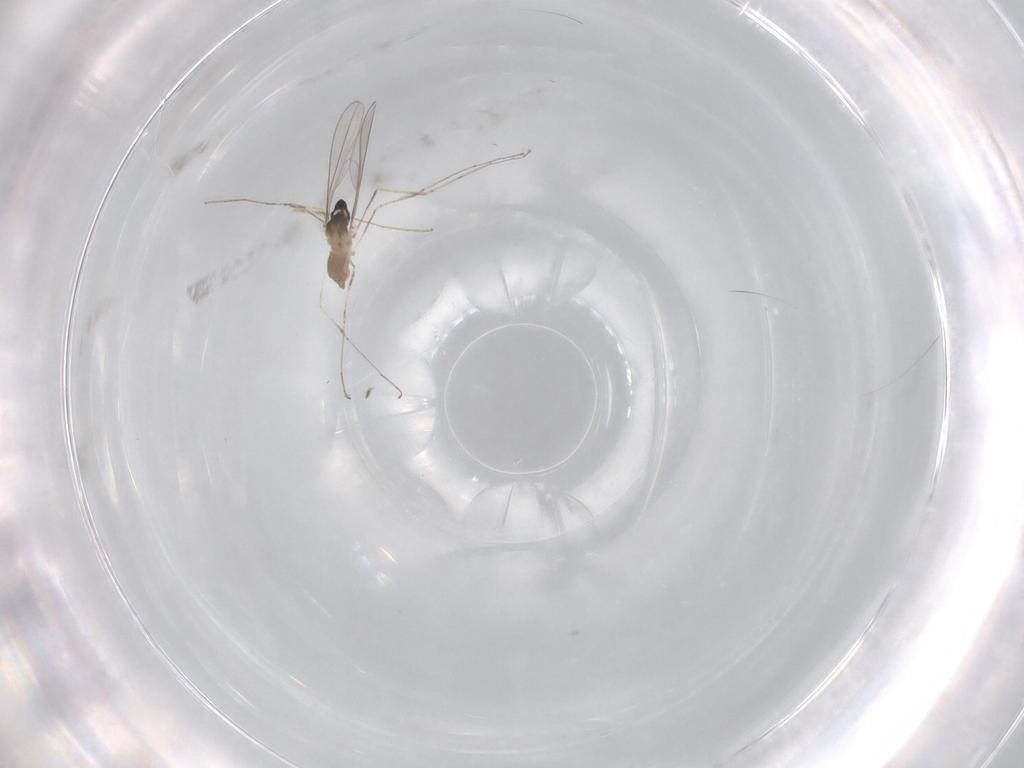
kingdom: Animalia
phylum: Arthropoda
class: Insecta
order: Diptera
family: Cecidomyiidae
